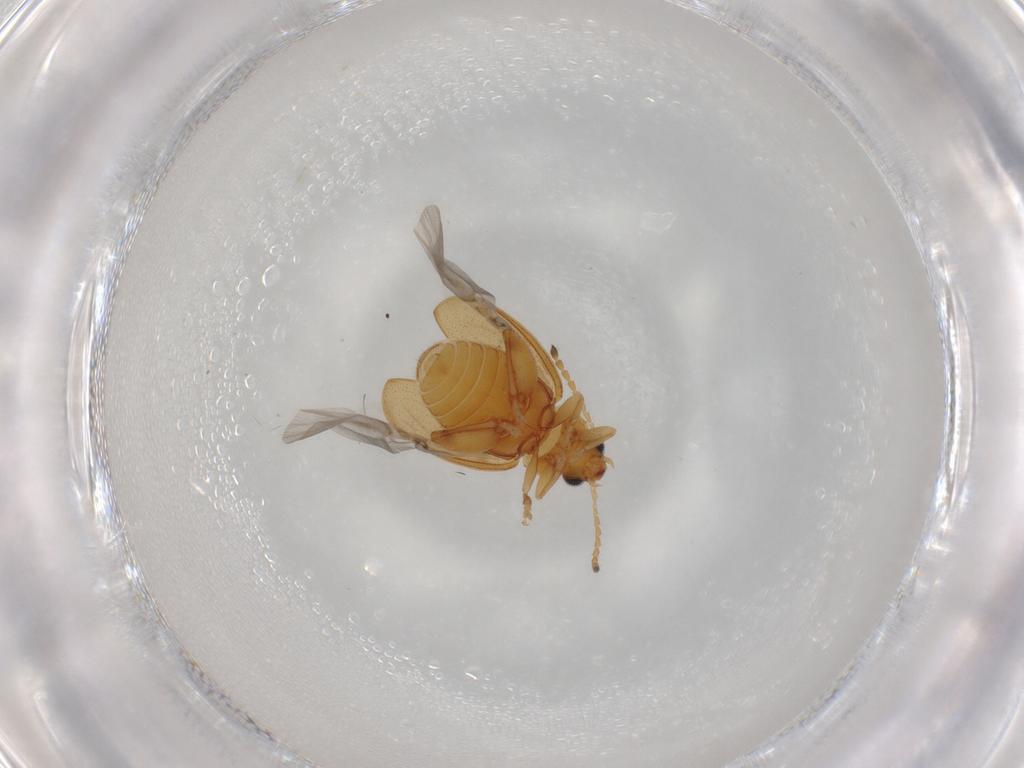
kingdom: Animalia
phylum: Arthropoda
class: Insecta
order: Coleoptera
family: Chrysomelidae
